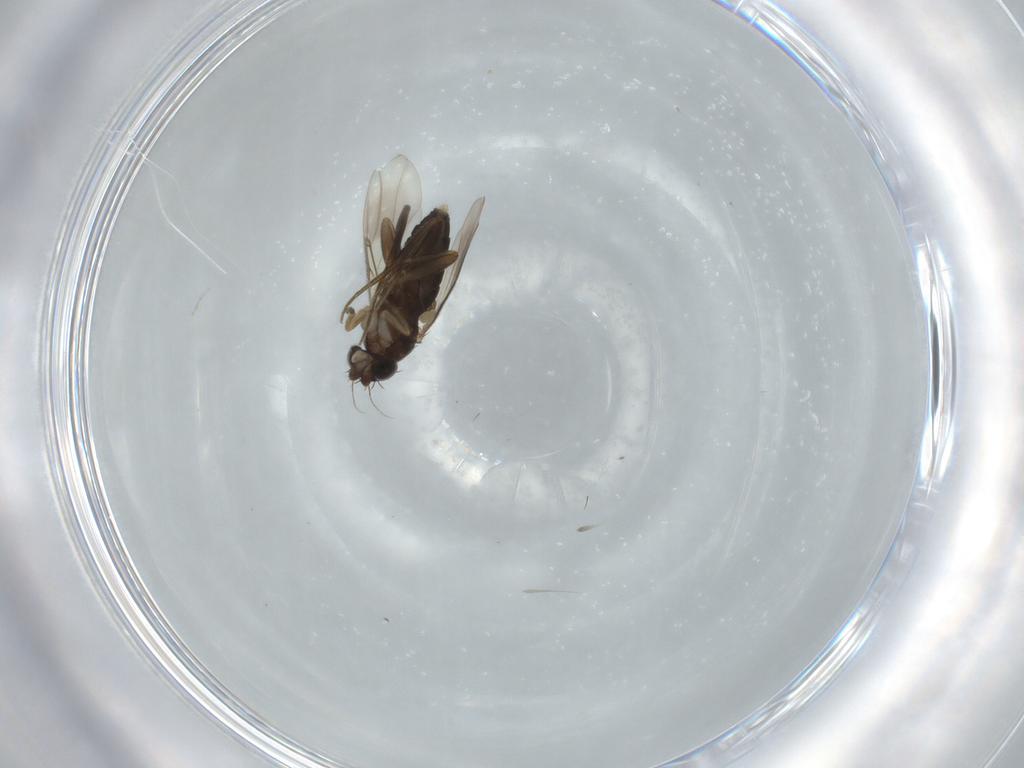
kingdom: Animalia
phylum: Arthropoda
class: Insecta
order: Diptera
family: Phoridae
